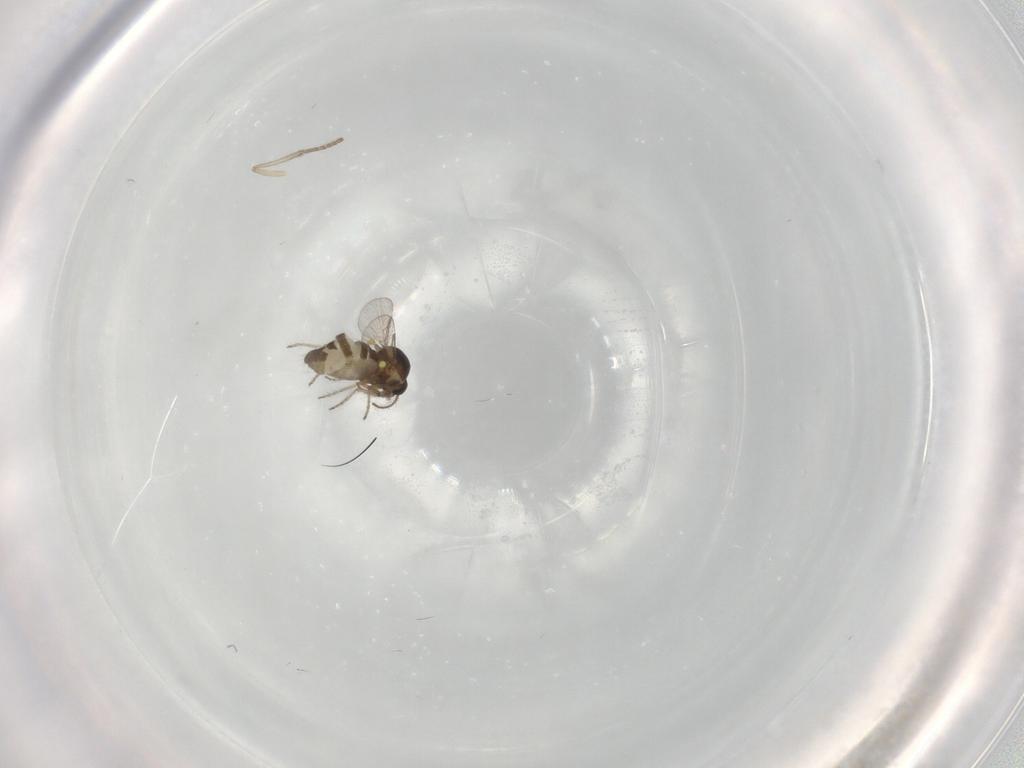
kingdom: Animalia
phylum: Arthropoda
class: Insecta
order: Diptera
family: Ceratopogonidae
